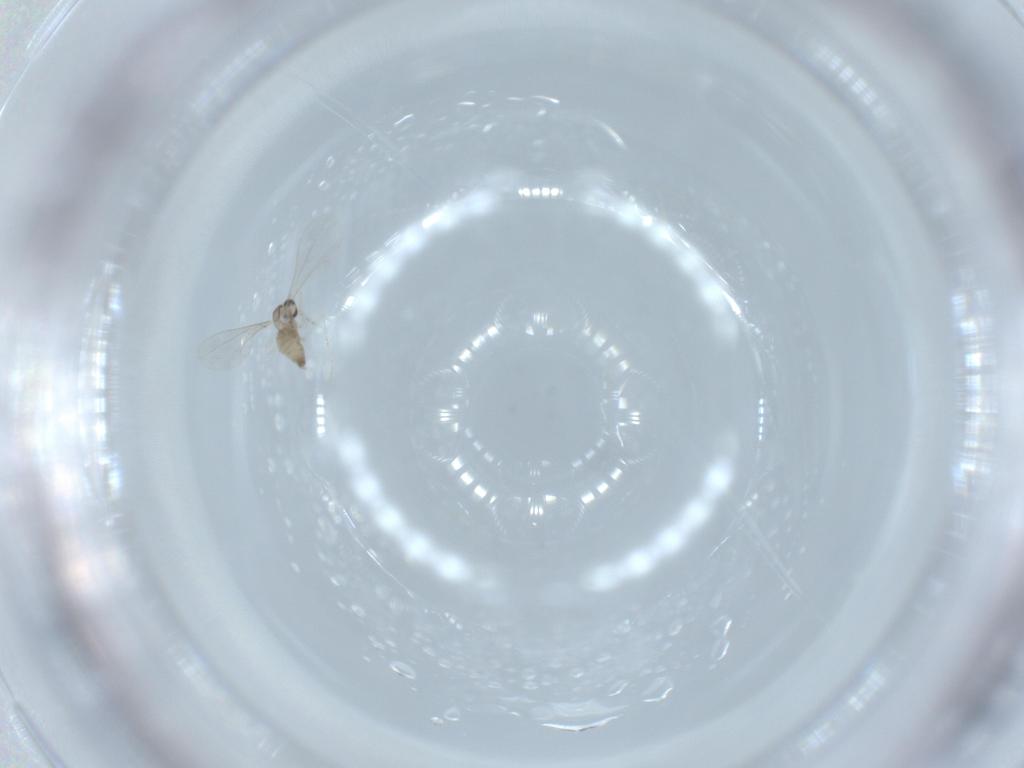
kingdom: Animalia
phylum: Arthropoda
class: Insecta
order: Diptera
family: Cecidomyiidae
